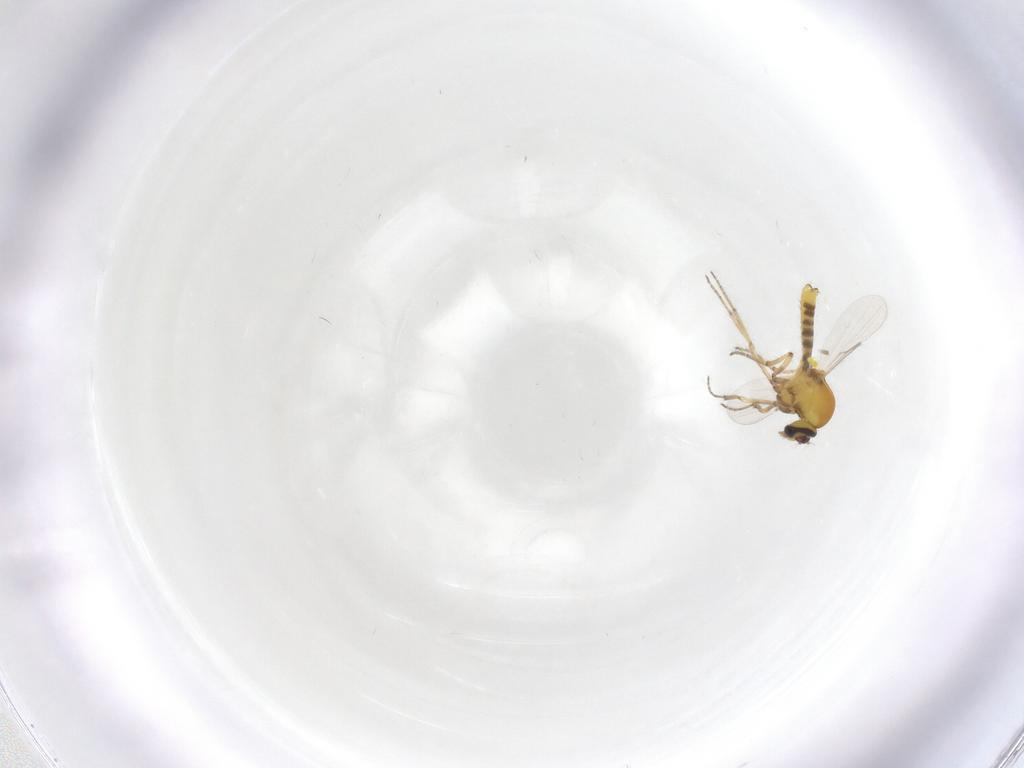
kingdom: Animalia
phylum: Arthropoda
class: Insecta
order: Diptera
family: Ceratopogonidae
